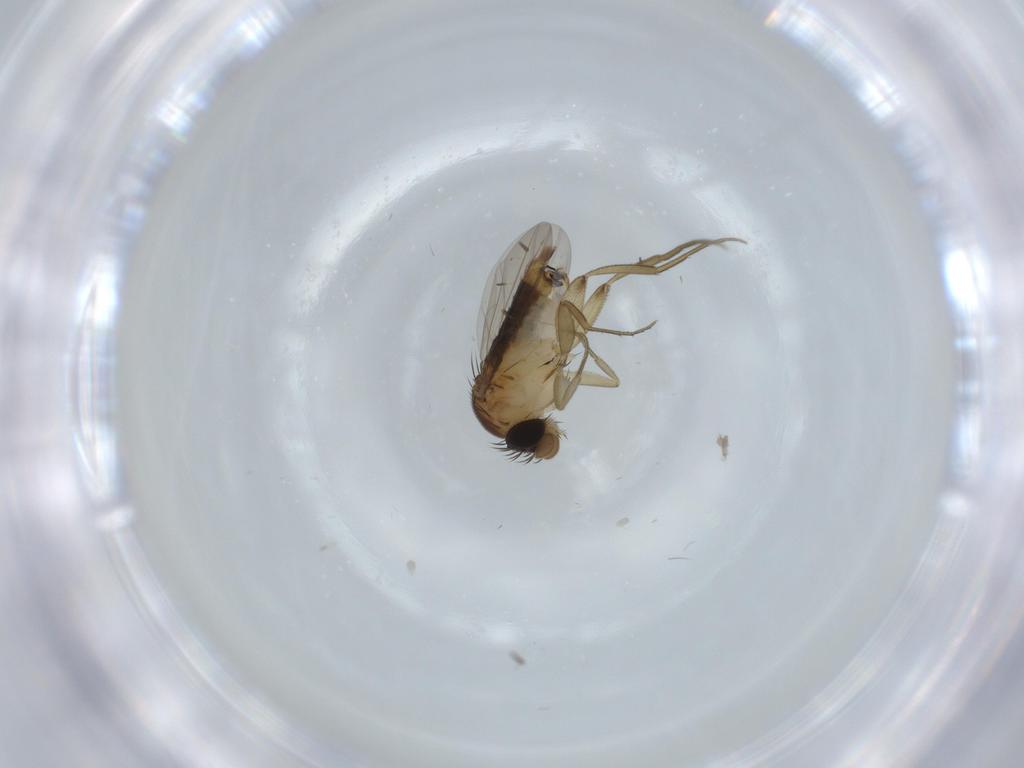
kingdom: Animalia
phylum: Arthropoda
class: Insecta
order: Diptera
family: Phoridae
